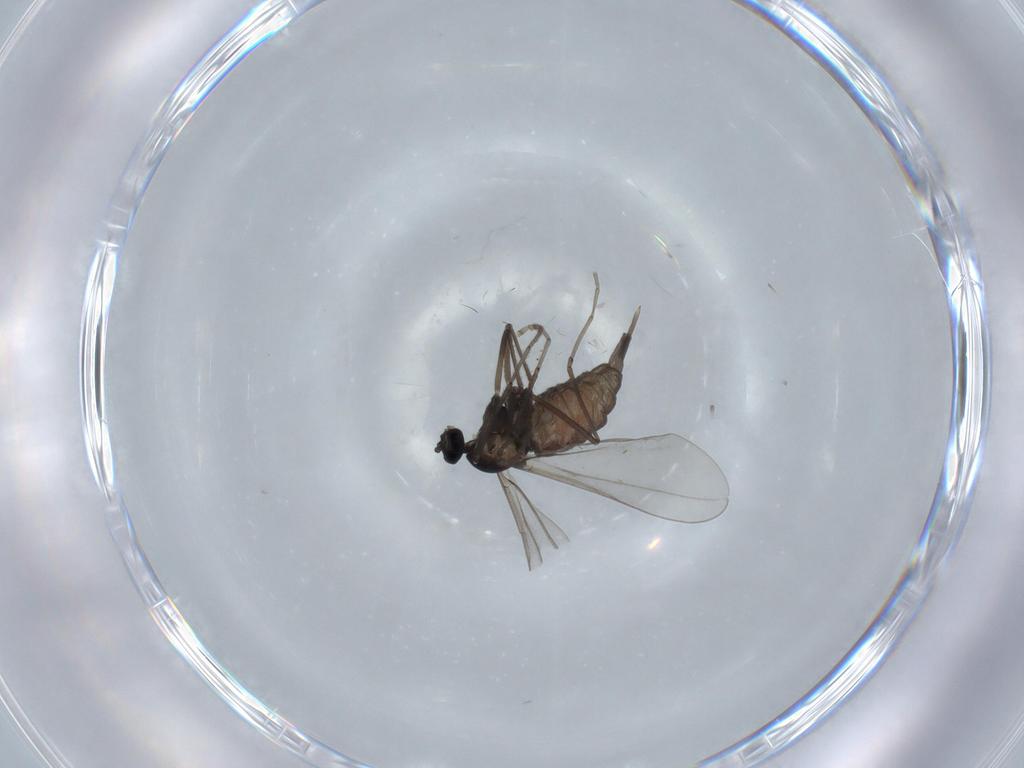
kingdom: Animalia
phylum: Arthropoda
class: Insecta
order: Diptera
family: Cecidomyiidae
